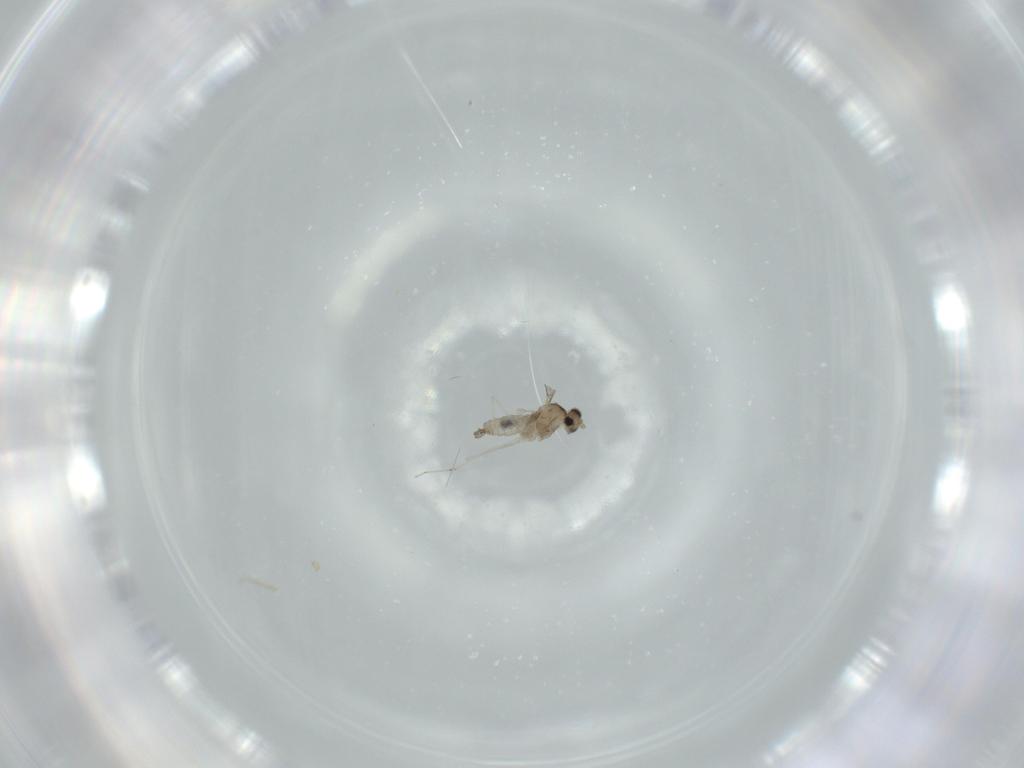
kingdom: Animalia
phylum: Arthropoda
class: Insecta
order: Diptera
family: Cecidomyiidae
